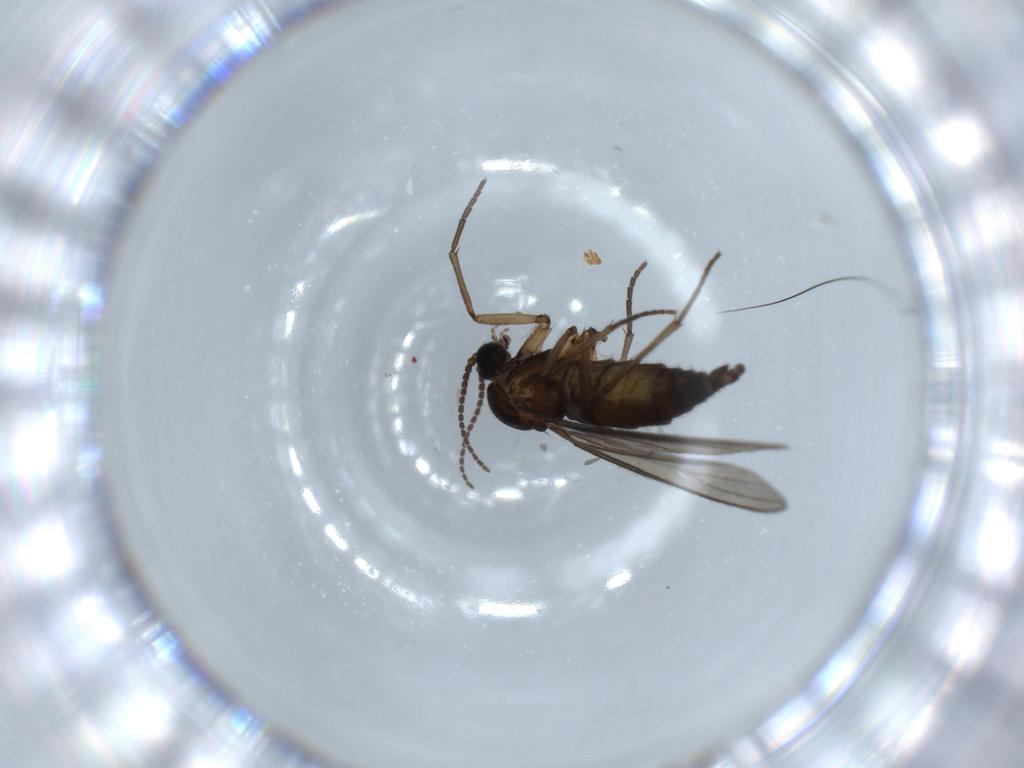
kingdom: Animalia
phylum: Arthropoda
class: Insecta
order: Diptera
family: Sciaridae
